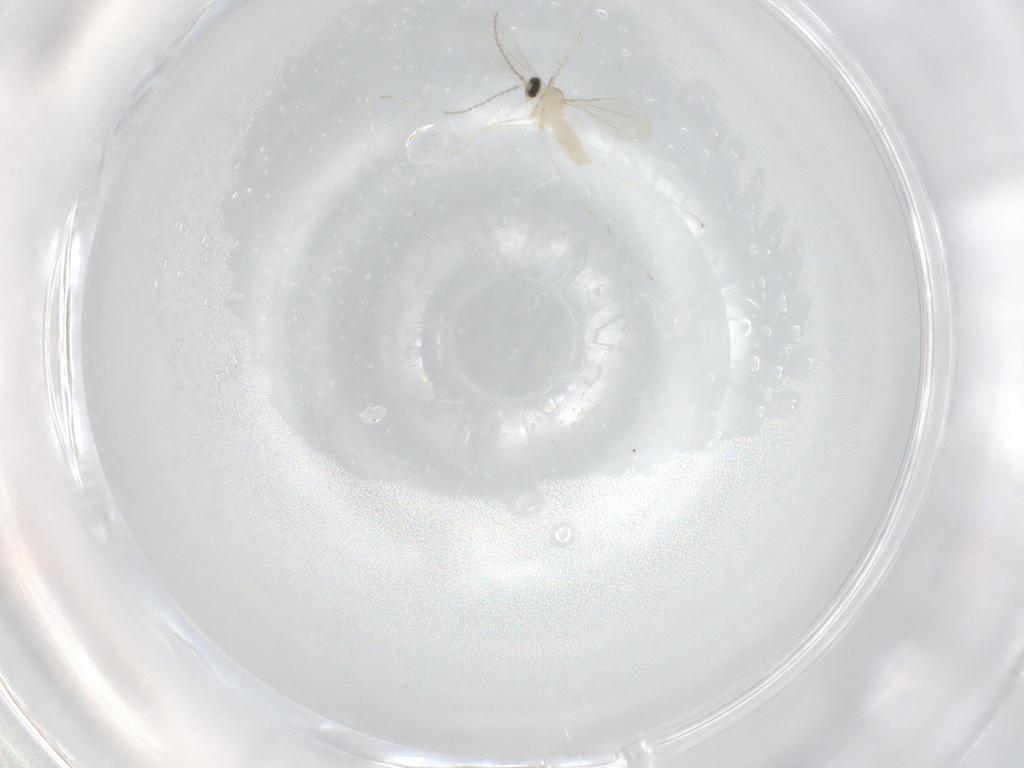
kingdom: Animalia
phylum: Arthropoda
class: Insecta
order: Diptera
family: Cecidomyiidae
